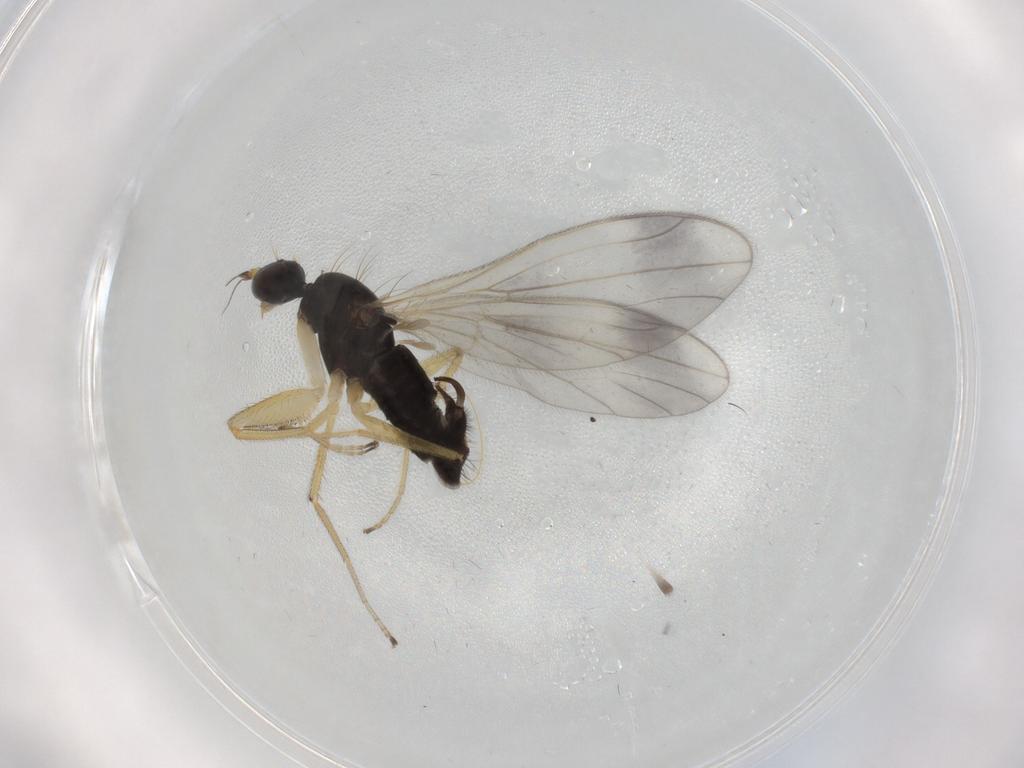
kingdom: Animalia
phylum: Arthropoda
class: Insecta
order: Diptera
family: Empididae
